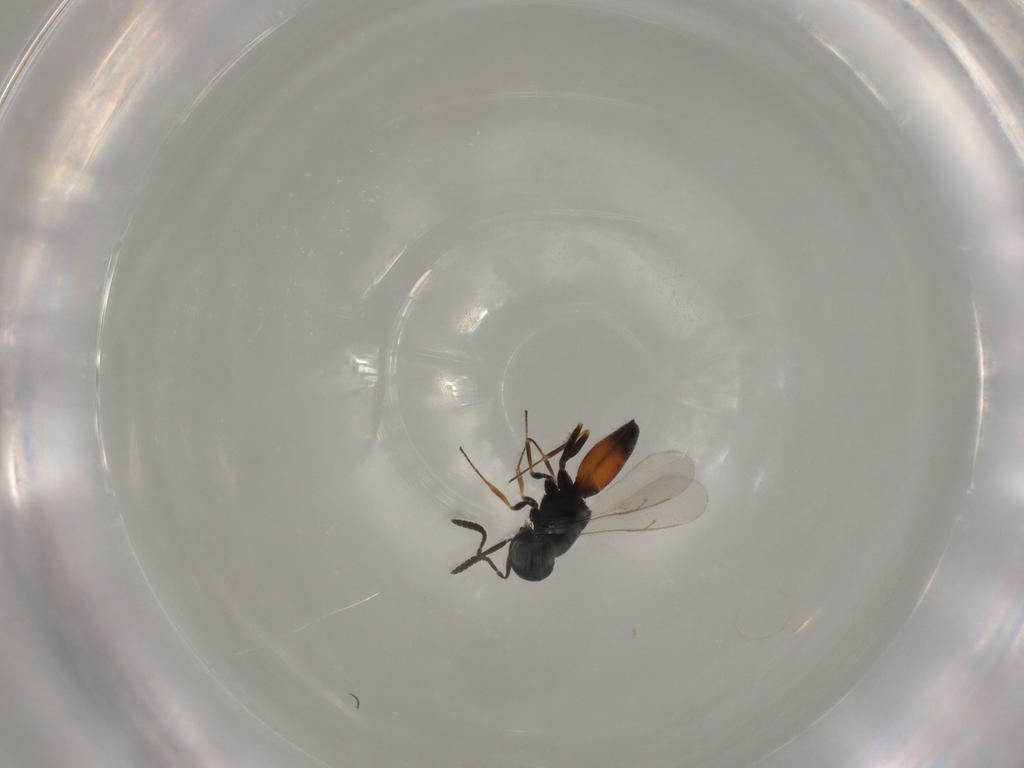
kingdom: Animalia
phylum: Arthropoda
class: Insecta
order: Hymenoptera
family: Scelionidae
